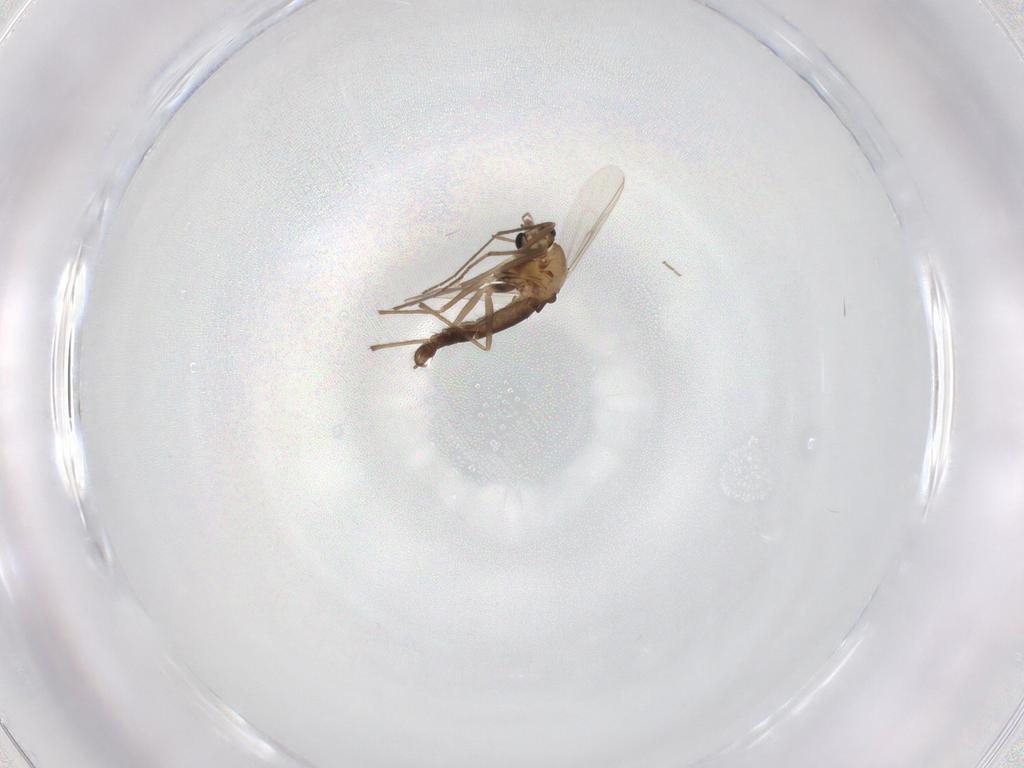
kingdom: Animalia
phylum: Arthropoda
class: Insecta
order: Diptera
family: Chironomidae
